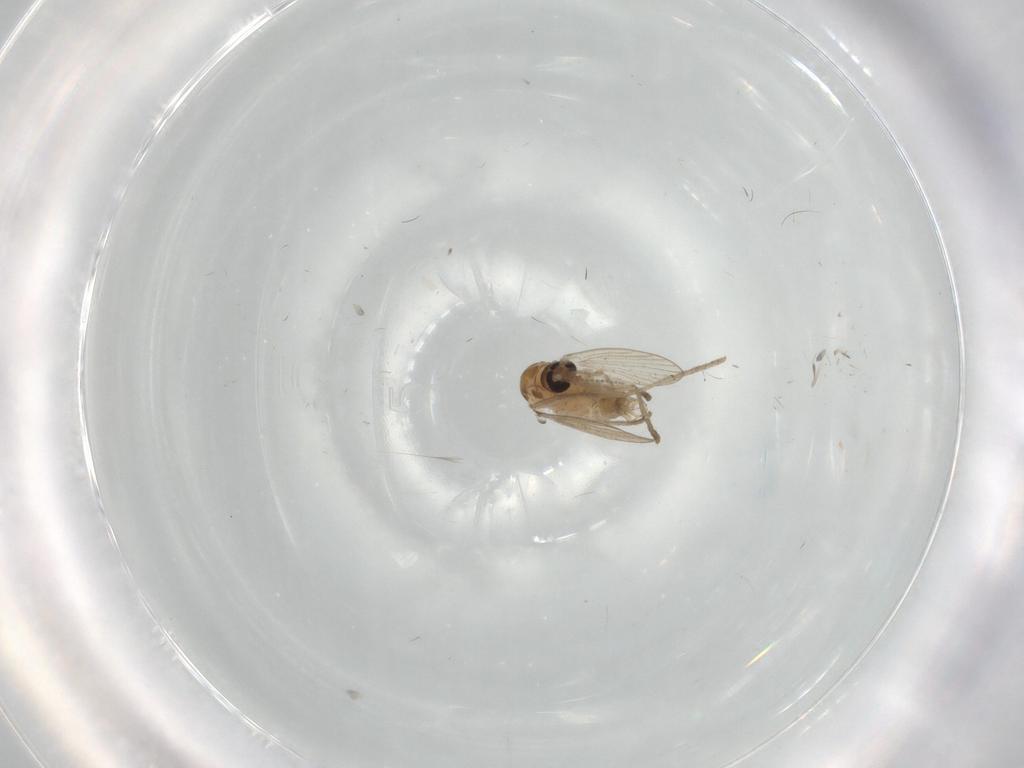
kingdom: Animalia
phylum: Arthropoda
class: Insecta
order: Diptera
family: Psychodidae
